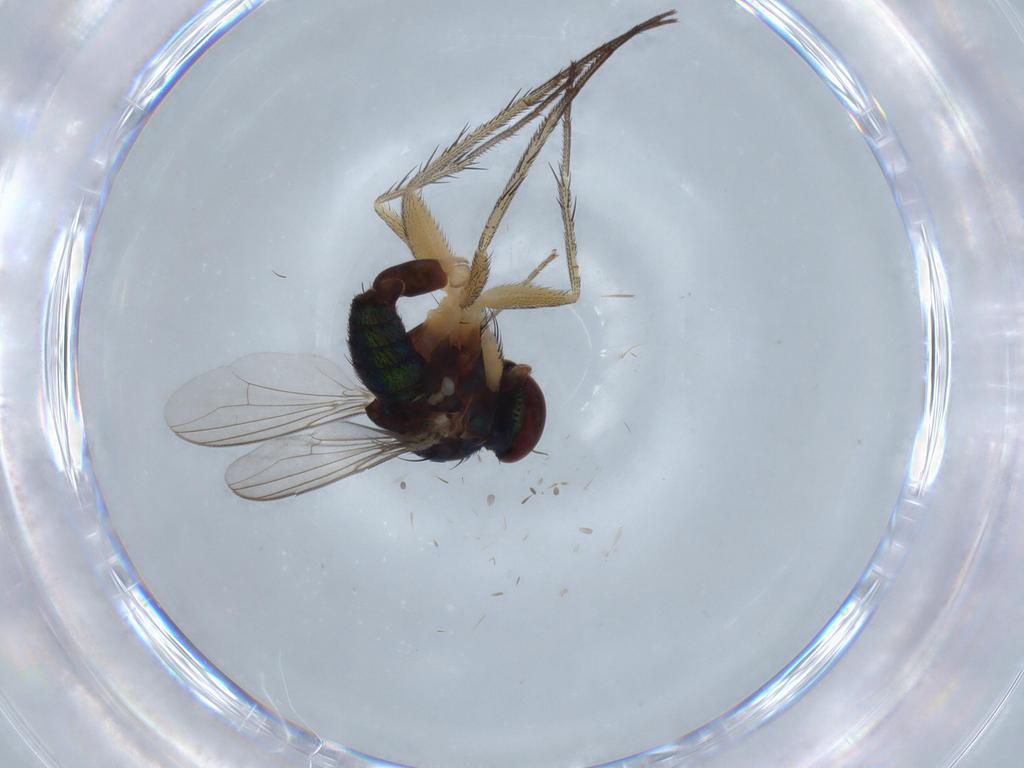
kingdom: Animalia
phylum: Arthropoda
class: Insecta
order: Diptera
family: Dolichopodidae
